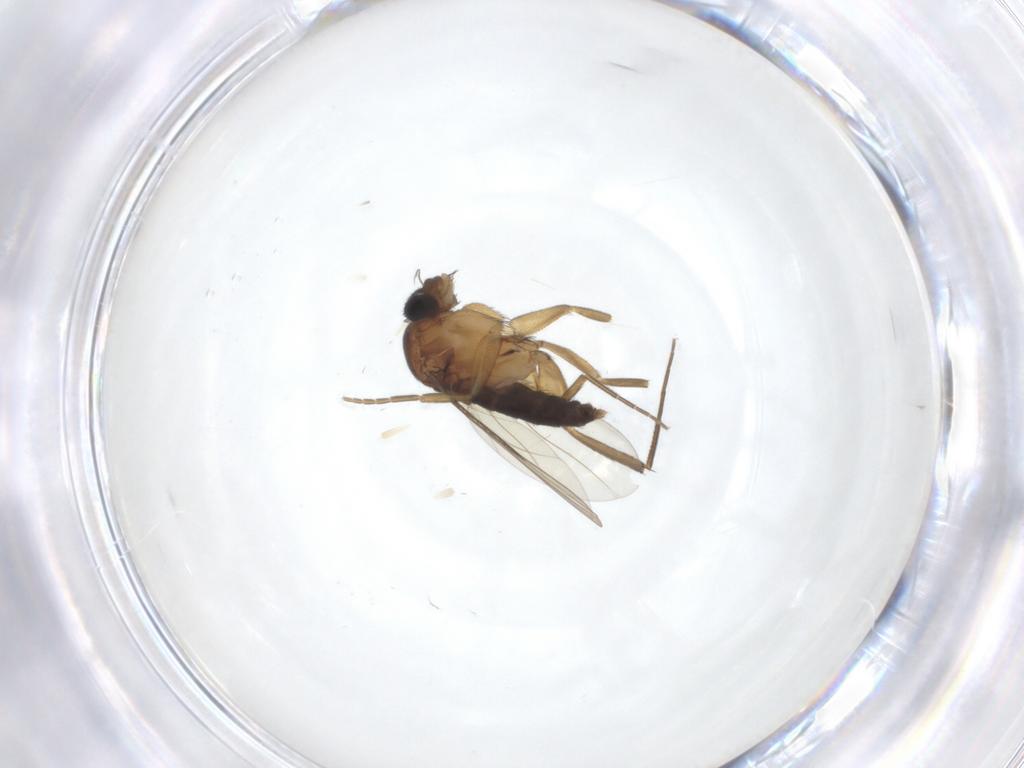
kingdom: Animalia
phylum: Arthropoda
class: Insecta
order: Diptera
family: Phoridae
